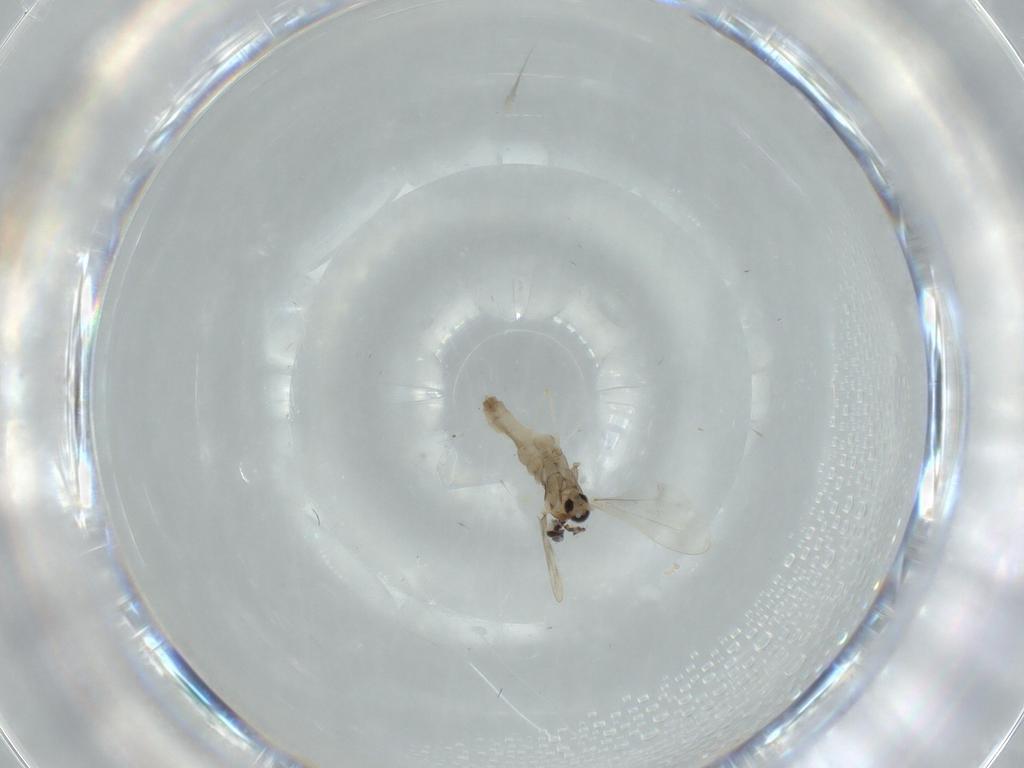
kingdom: Animalia
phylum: Arthropoda
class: Insecta
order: Diptera
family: Cecidomyiidae
